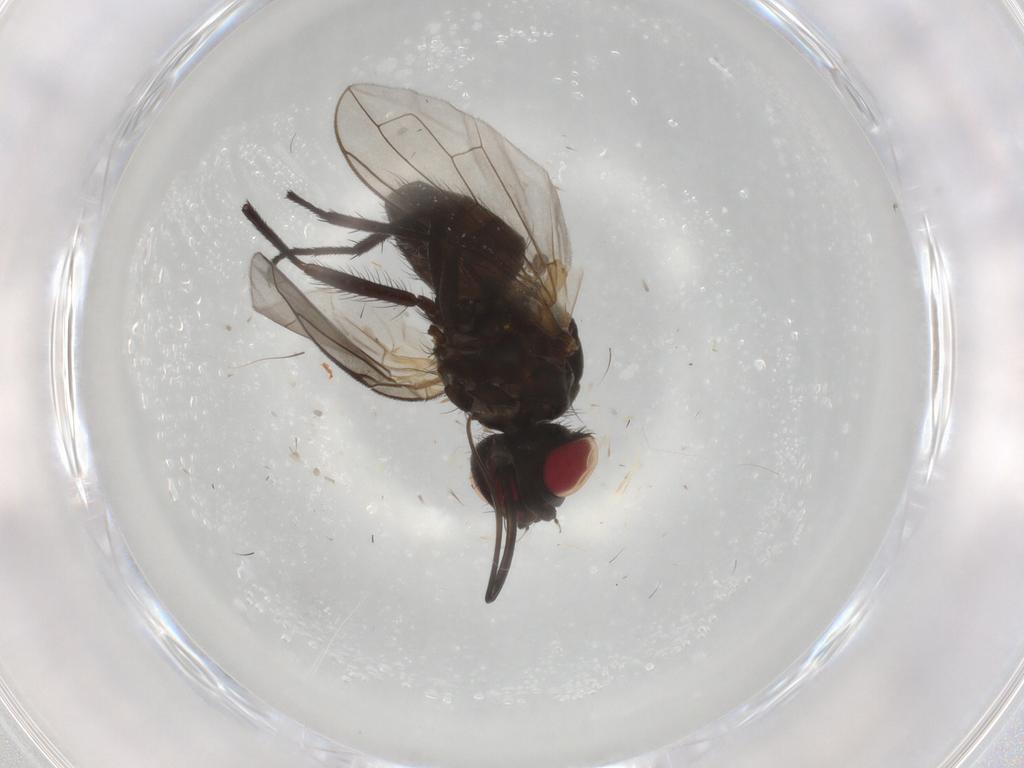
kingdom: Animalia
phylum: Arthropoda
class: Insecta
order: Diptera
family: Tachinidae
